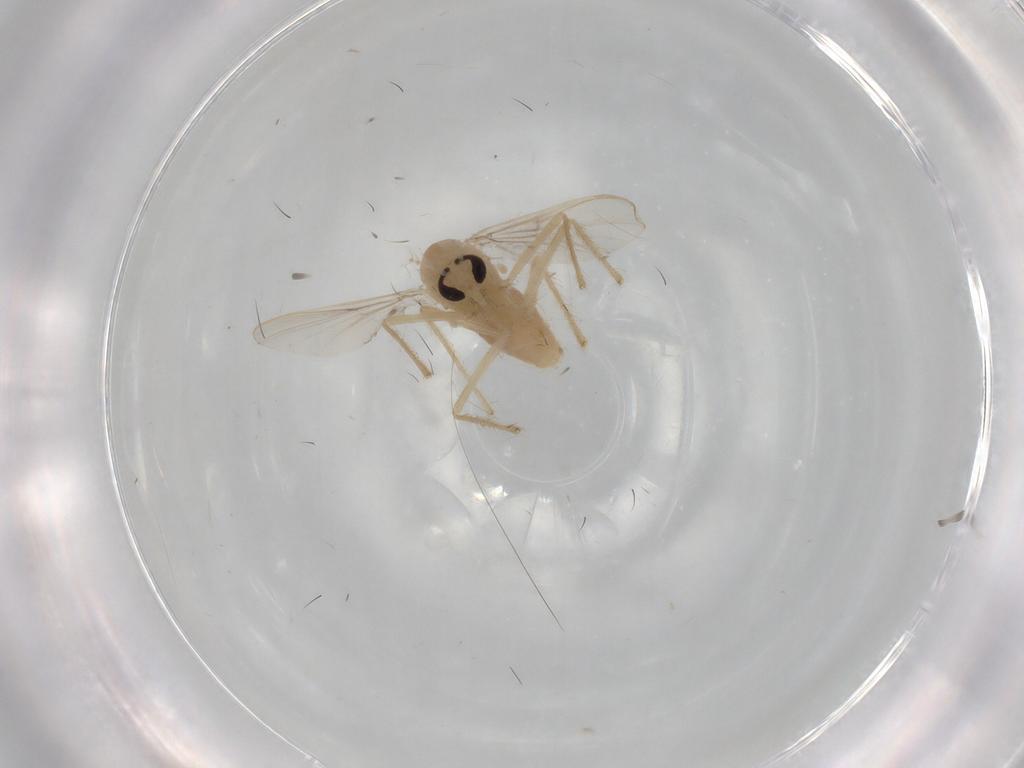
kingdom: Animalia
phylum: Arthropoda
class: Insecta
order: Diptera
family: Chironomidae
